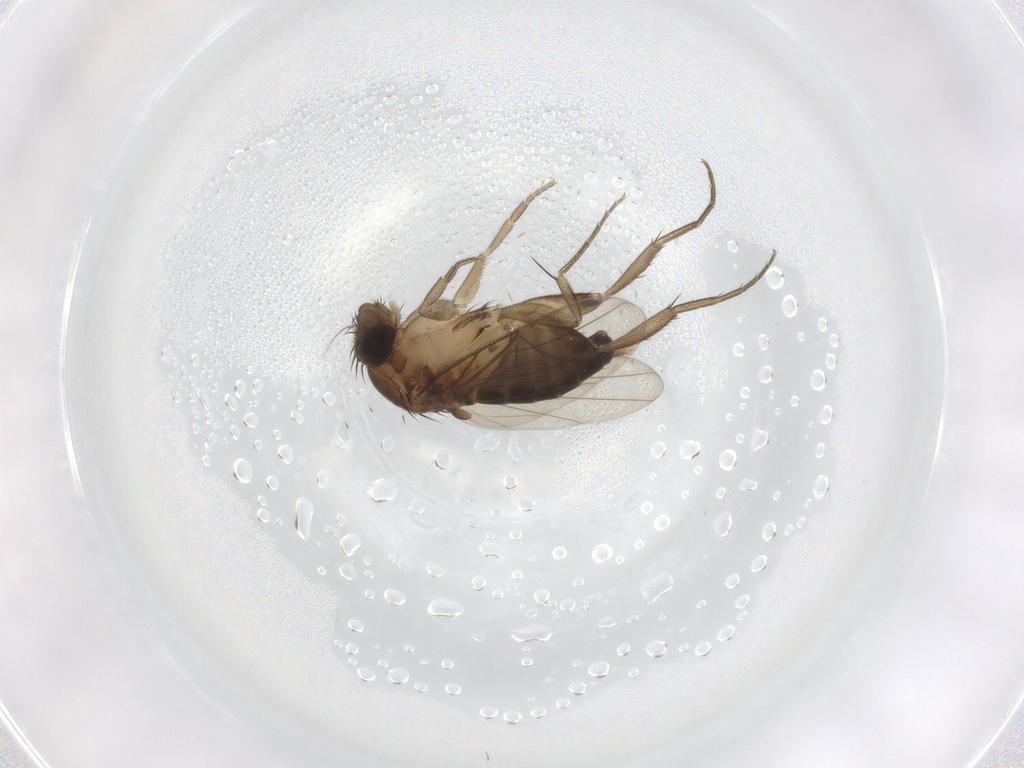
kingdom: Animalia
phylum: Arthropoda
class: Insecta
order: Diptera
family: Phoridae
